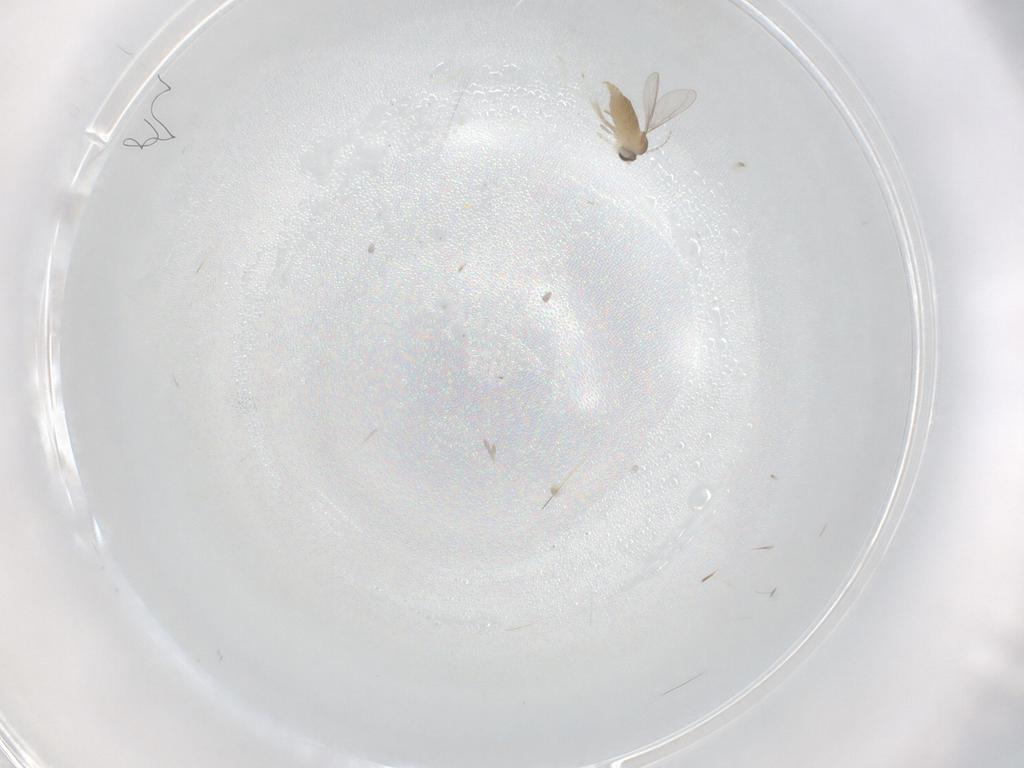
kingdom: Animalia
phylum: Arthropoda
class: Insecta
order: Diptera
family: Cecidomyiidae
